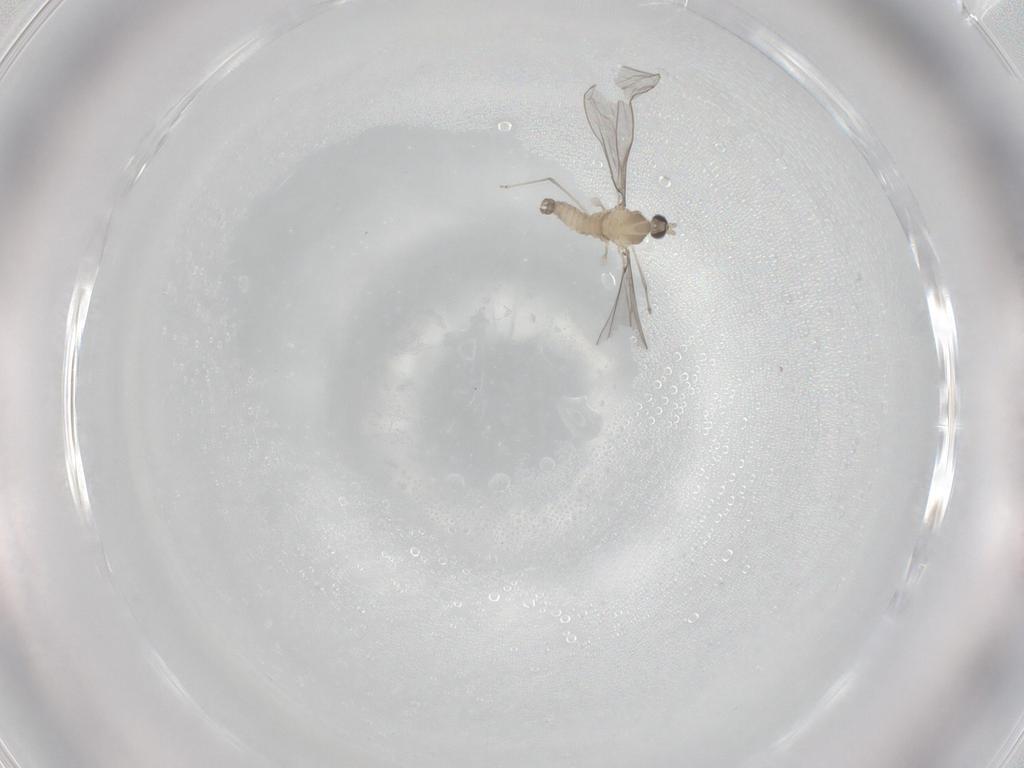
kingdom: Animalia
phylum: Arthropoda
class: Insecta
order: Diptera
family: Cecidomyiidae
